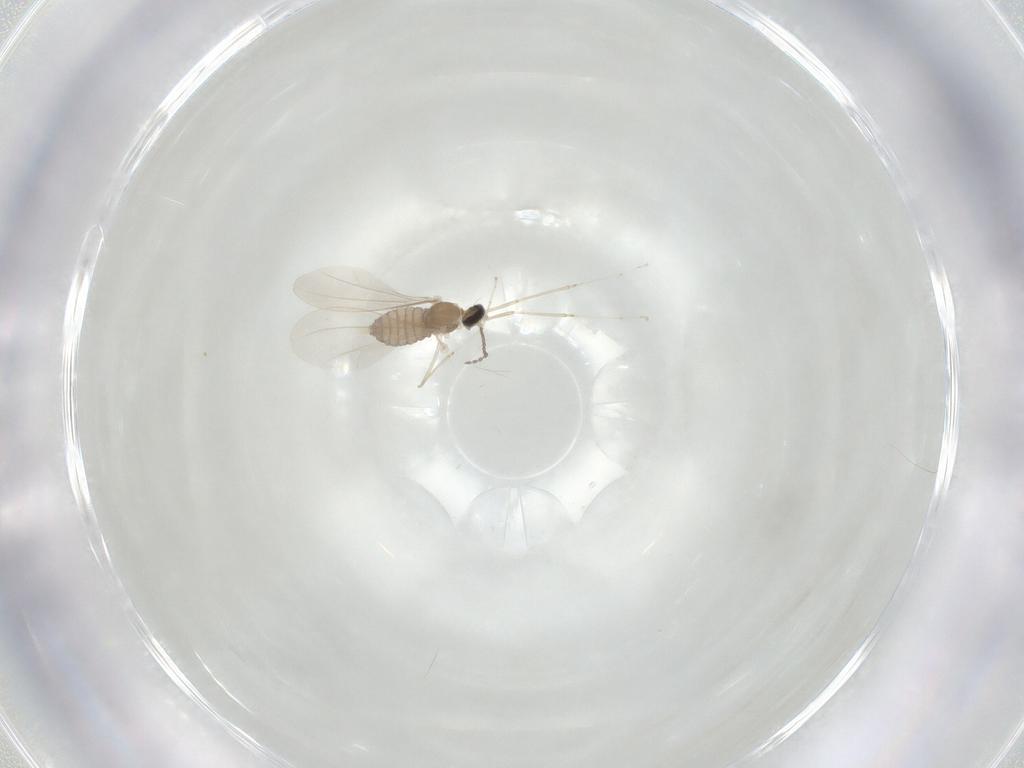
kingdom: Animalia
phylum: Arthropoda
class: Insecta
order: Diptera
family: Cecidomyiidae
